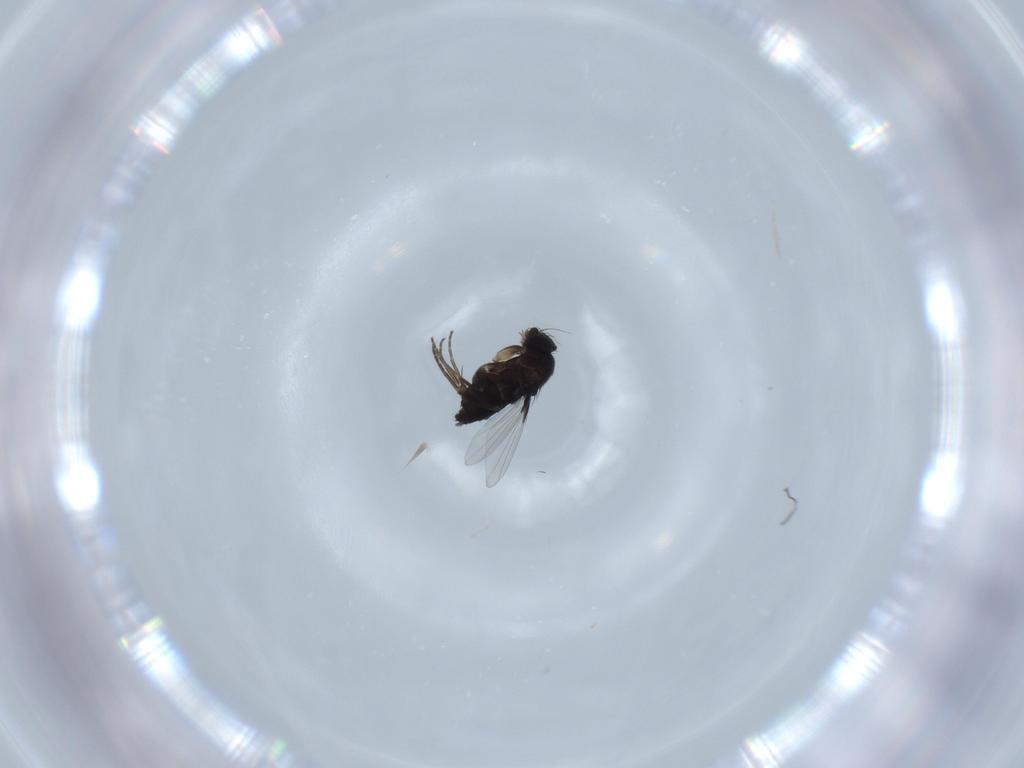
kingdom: Animalia
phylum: Arthropoda
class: Insecta
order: Diptera
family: Phoridae
